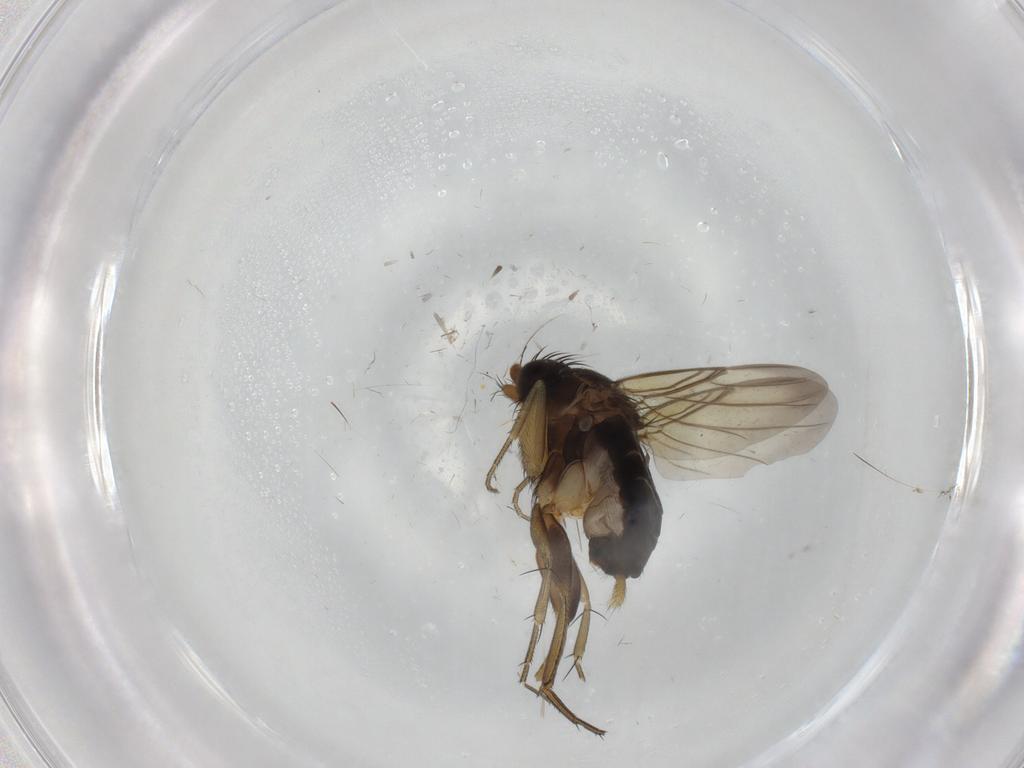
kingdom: Animalia
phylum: Arthropoda
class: Insecta
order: Diptera
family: Phoridae
